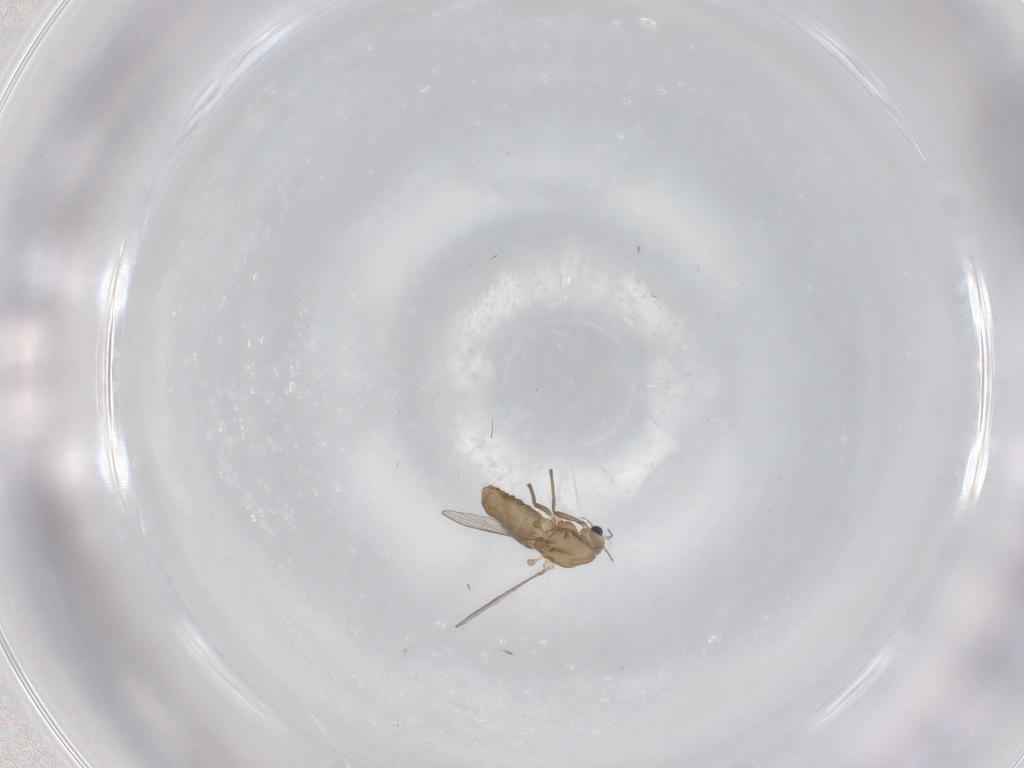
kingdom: Animalia
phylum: Arthropoda
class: Insecta
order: Diptera
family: Chironomidae
